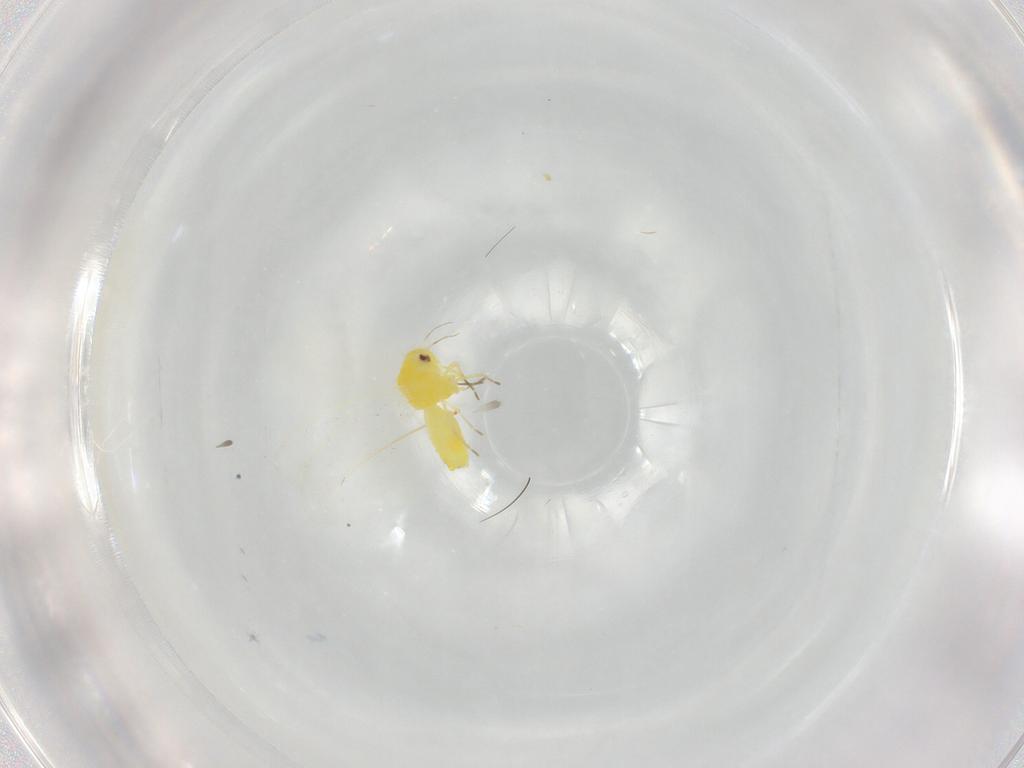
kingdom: Animalia
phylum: Arthropoda
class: Insecta
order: Hemiptera
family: Aleyrodidae
